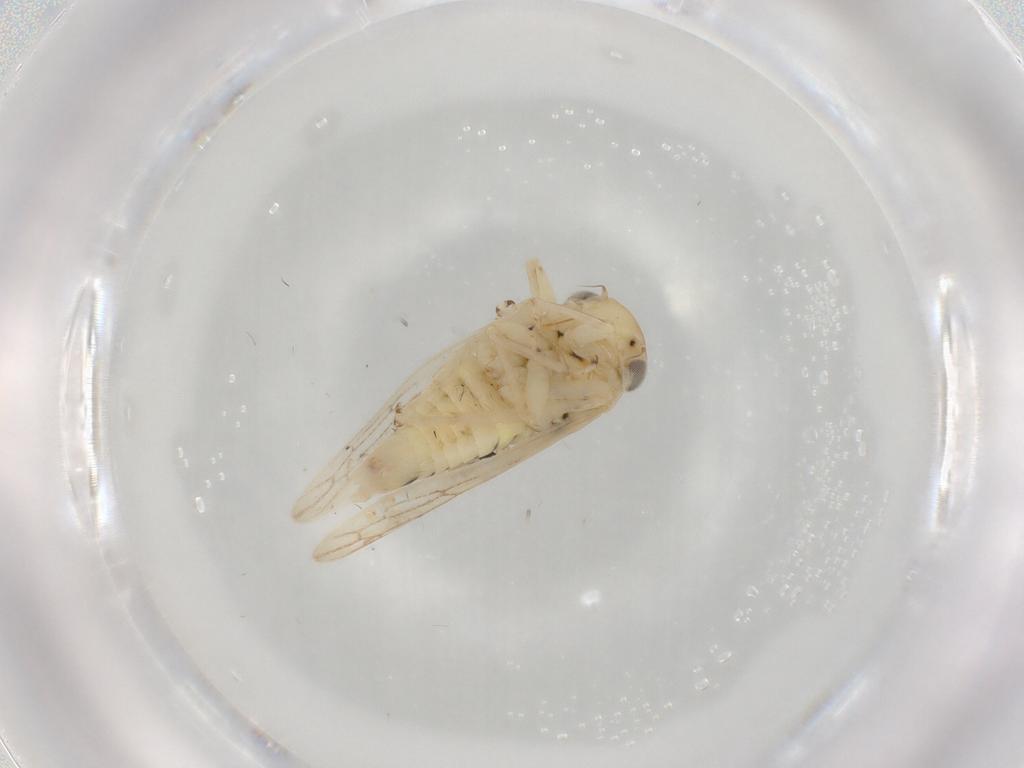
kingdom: Animalia
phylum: Arthropoda
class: Insecta
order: Hemiptera
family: Cicadellidae
